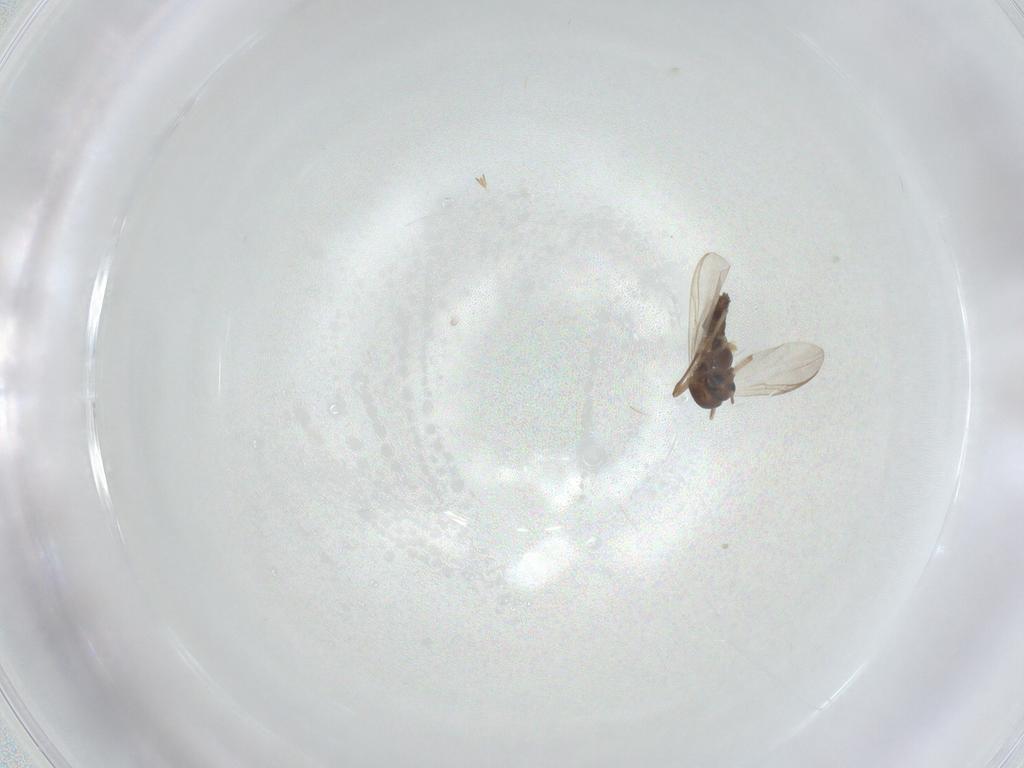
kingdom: Animalia
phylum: Arthropoda
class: Insecta
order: Diptera
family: Chironomidae
